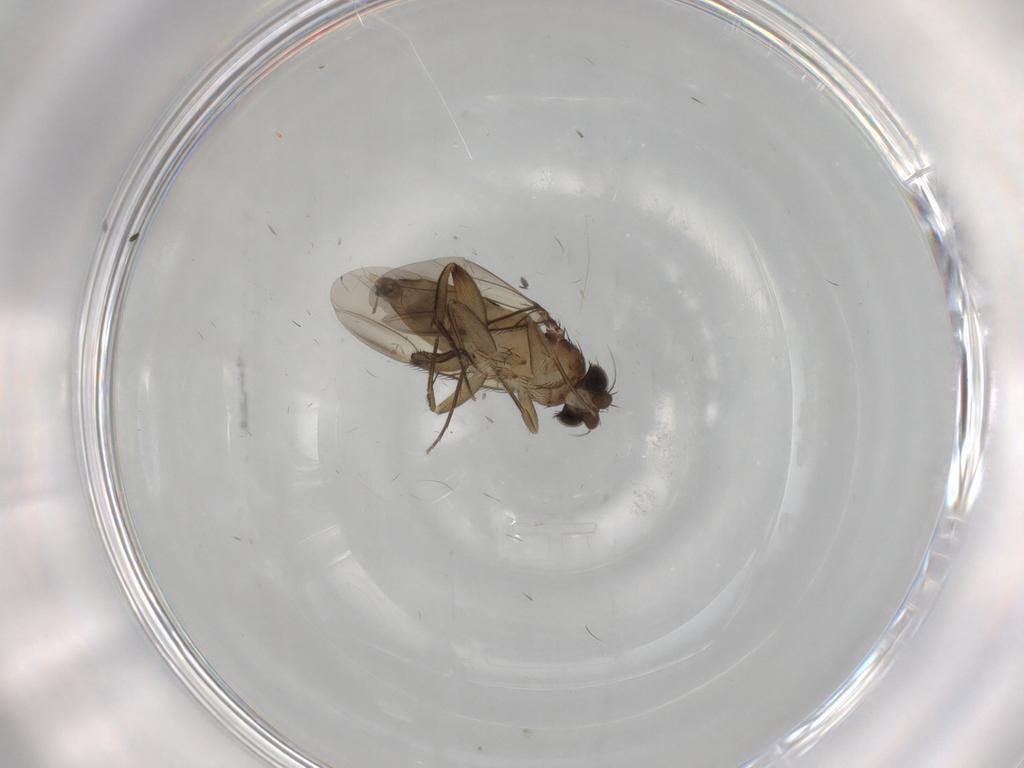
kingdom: Animalia
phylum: Arthropoda
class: Insecta
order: Diptera
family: Phoridae
